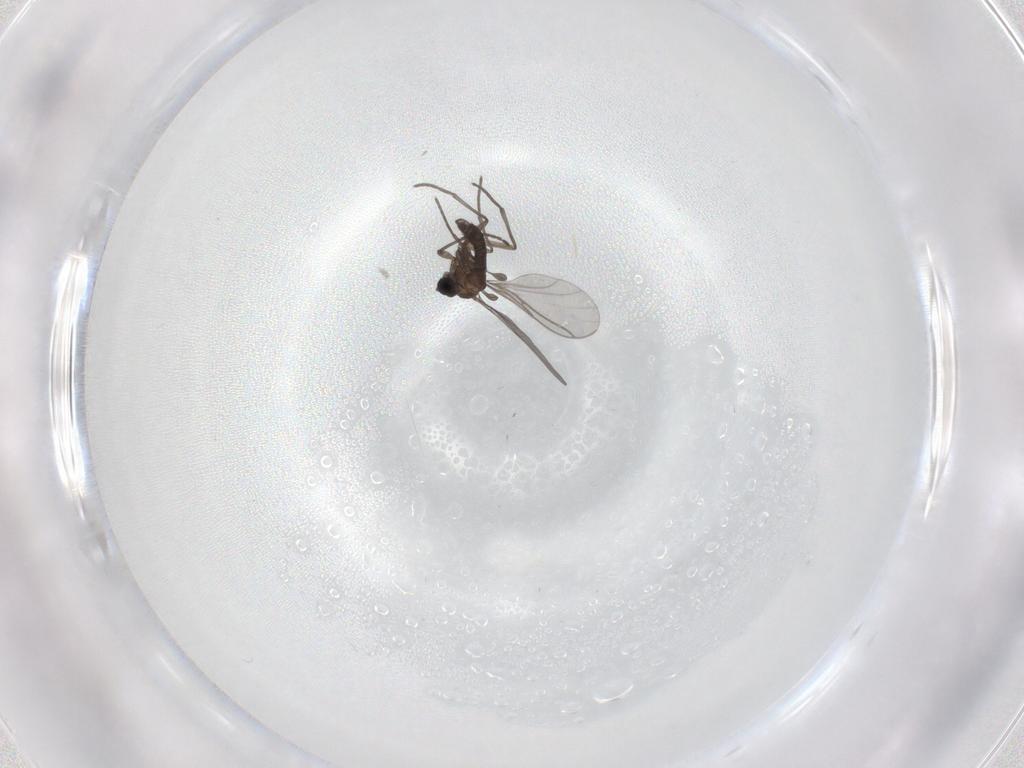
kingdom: Animalia
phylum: Arthropoda
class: Insecta
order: Diptera
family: Cecidomyiidae
